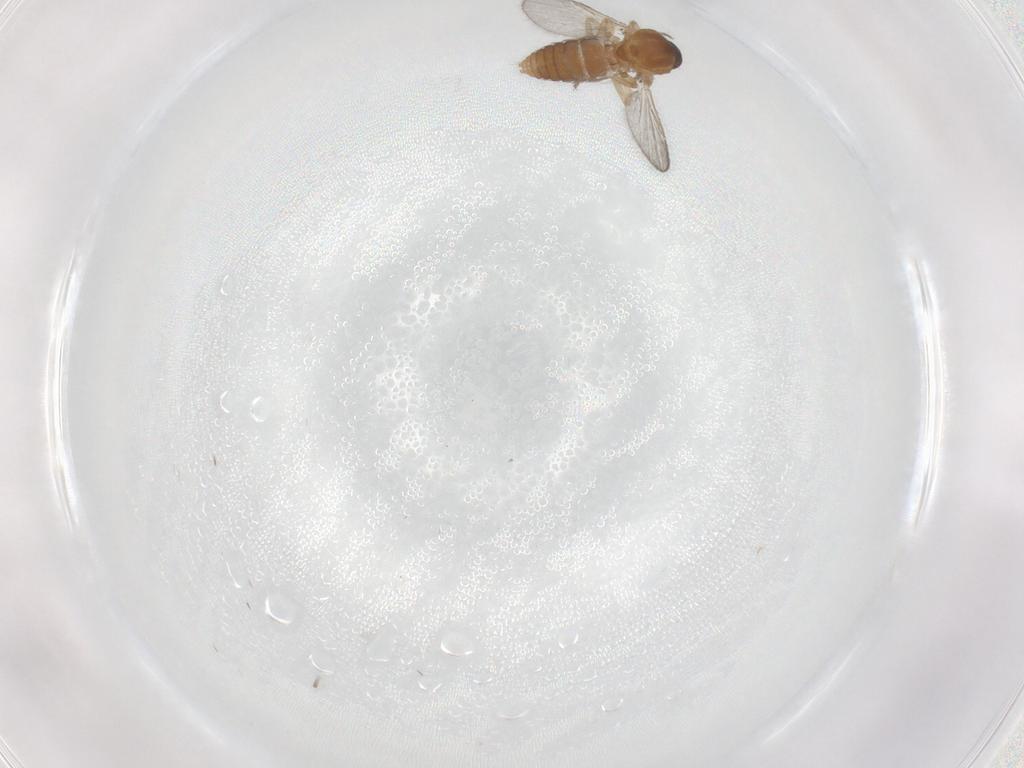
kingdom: Animalia
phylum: Arthropoda
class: Insecta
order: Diptera
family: Ceratopogonidae
